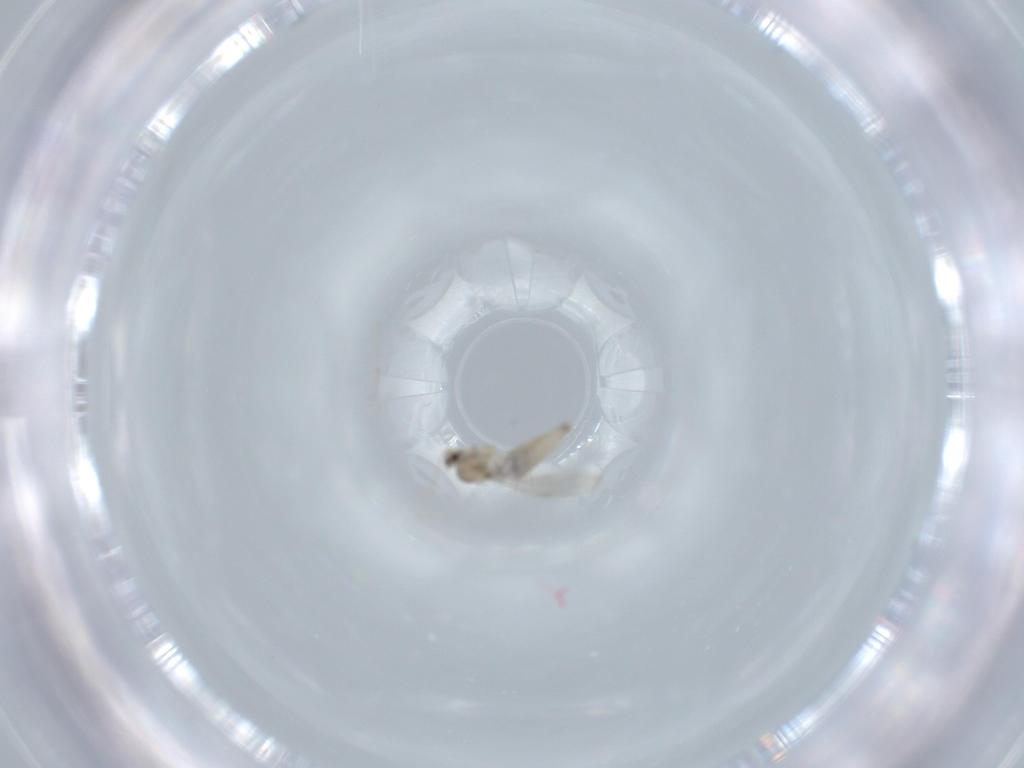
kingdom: Animalia
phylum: Arthropoda
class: Insecta
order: Diptera
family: Cecidomyiidae
